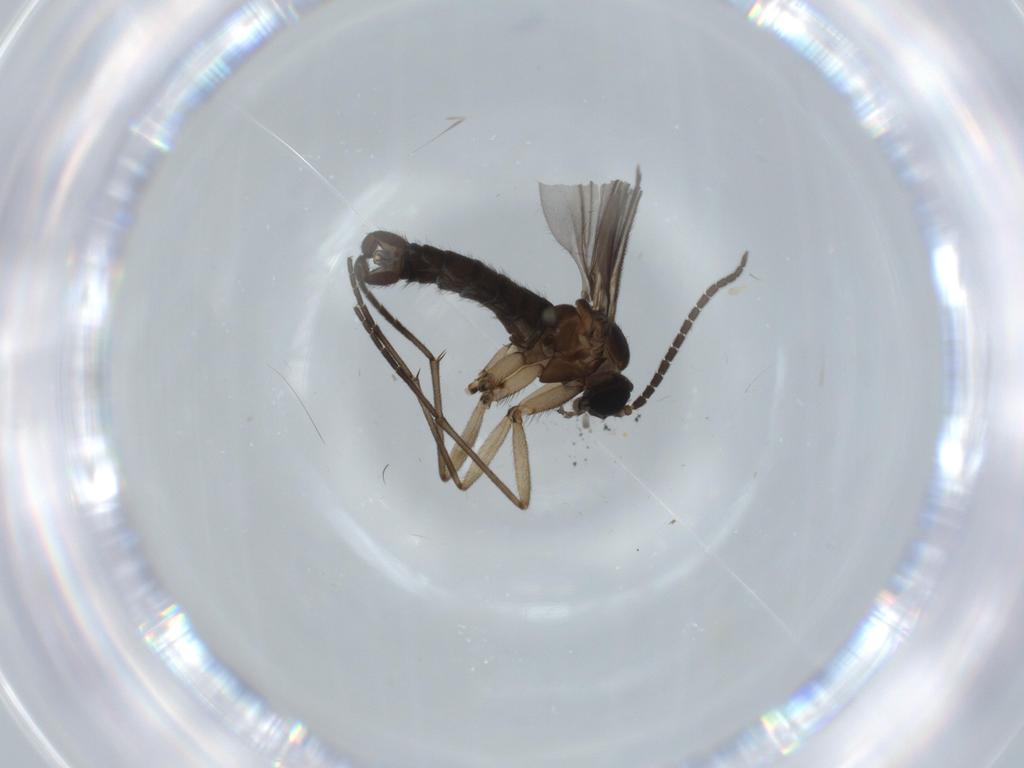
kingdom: Animalia
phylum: Arthropoda
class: Insecta
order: Diptera
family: Sciaridae
